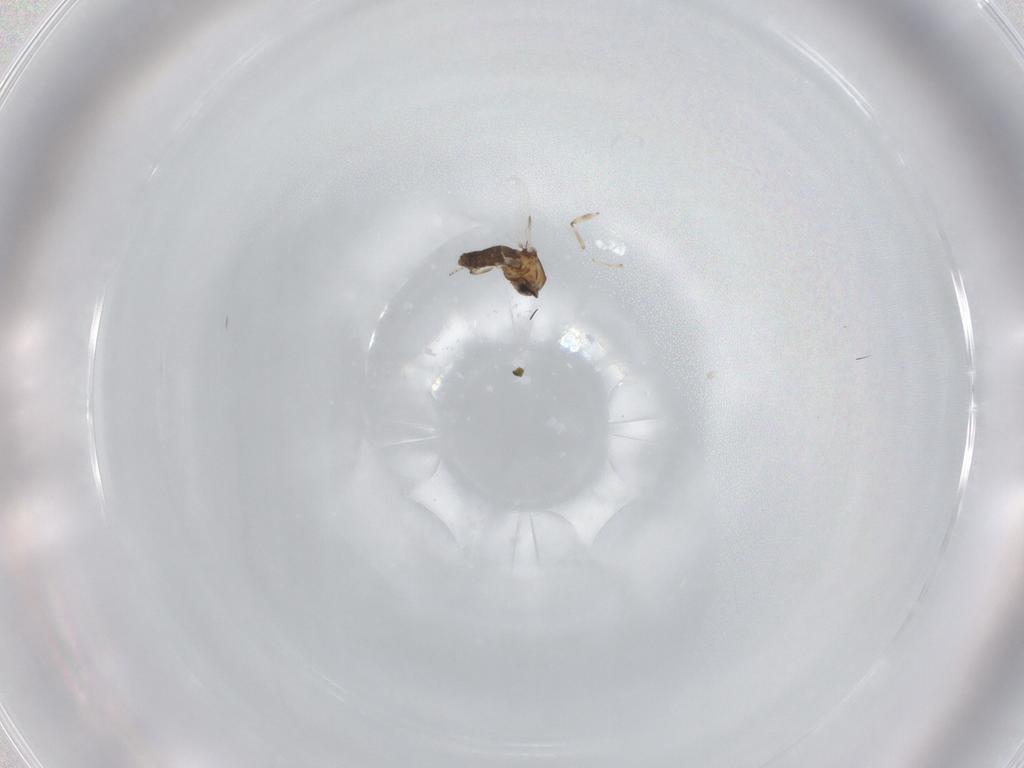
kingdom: Animalia
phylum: Arthropoda
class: Insecta
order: Diptera
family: Ceratopogonidae
